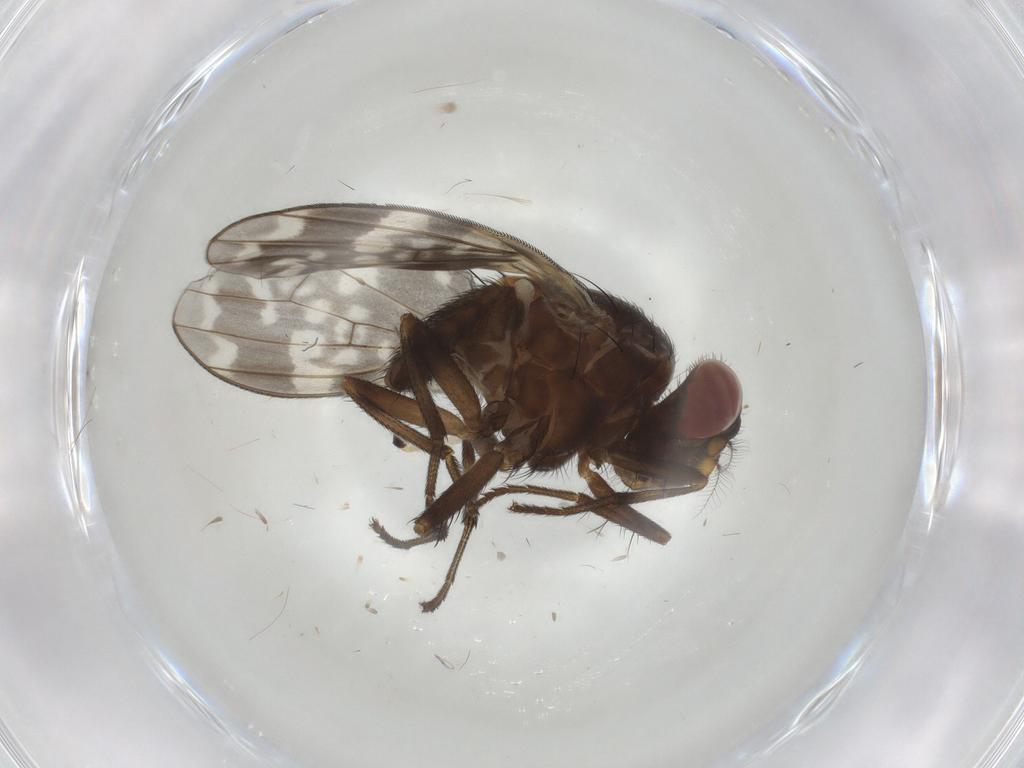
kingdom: Animalia
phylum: Arthropoda
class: Insecta
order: Diptera
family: Lauxaniidae
